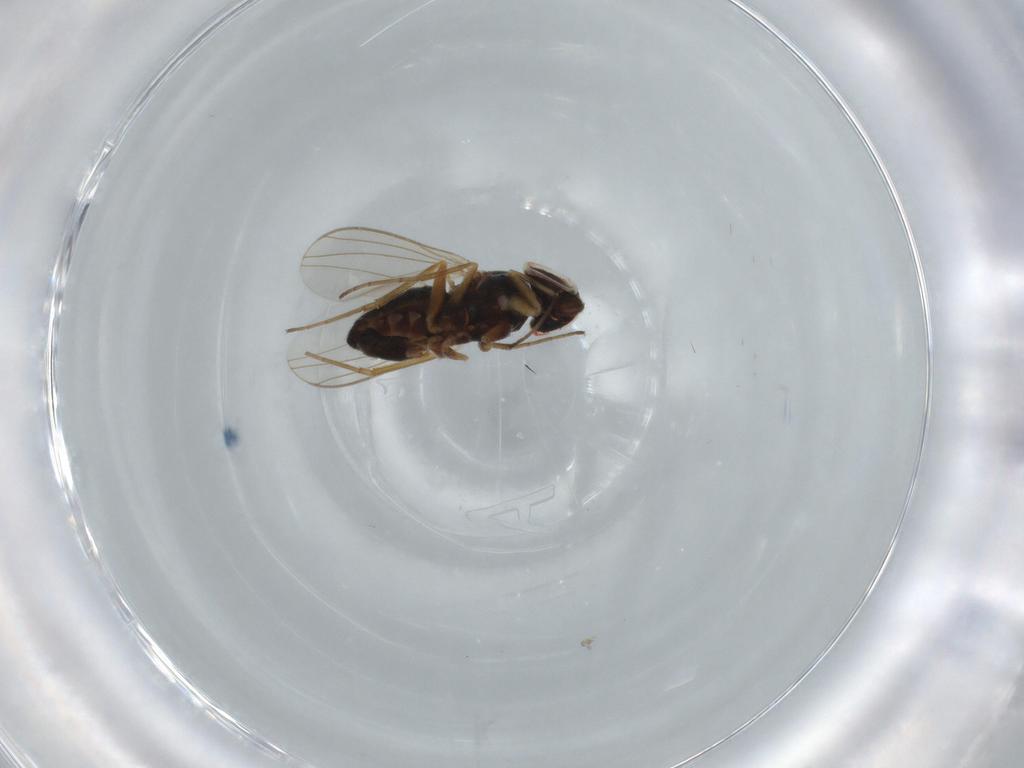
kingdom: Animalia
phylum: Arthropoda
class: Insecta
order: Diptera
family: Dolichopodidae
